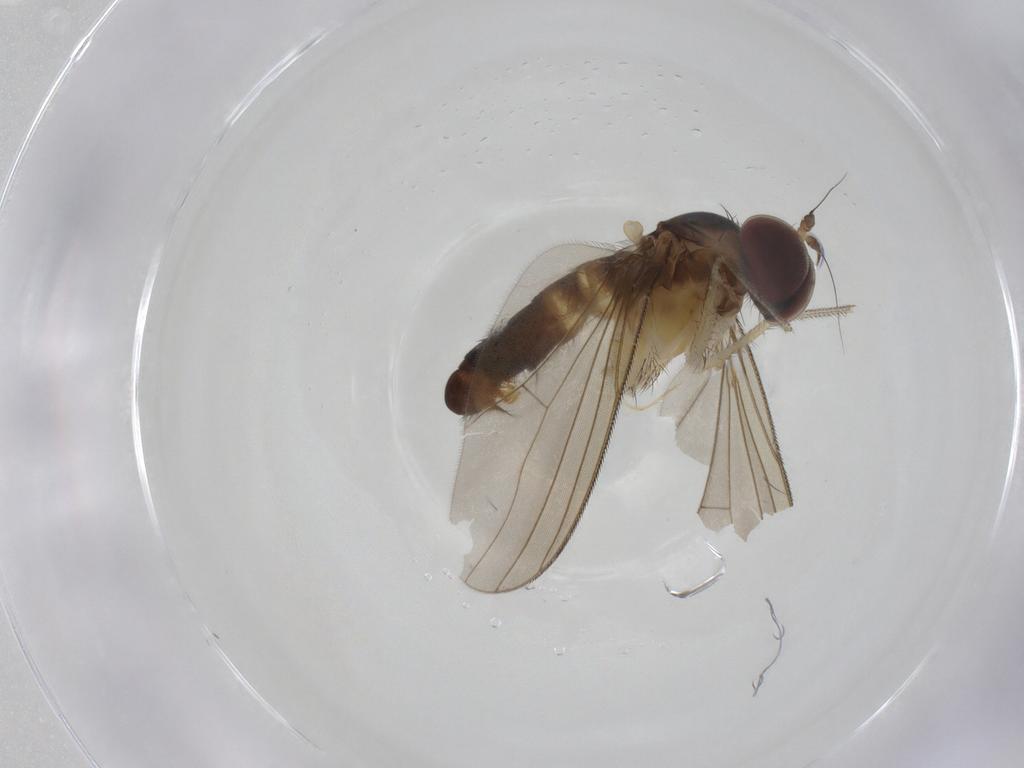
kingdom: Animalia
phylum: Arthropoda
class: Insecta
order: Diptera
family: Dolichopodidae
